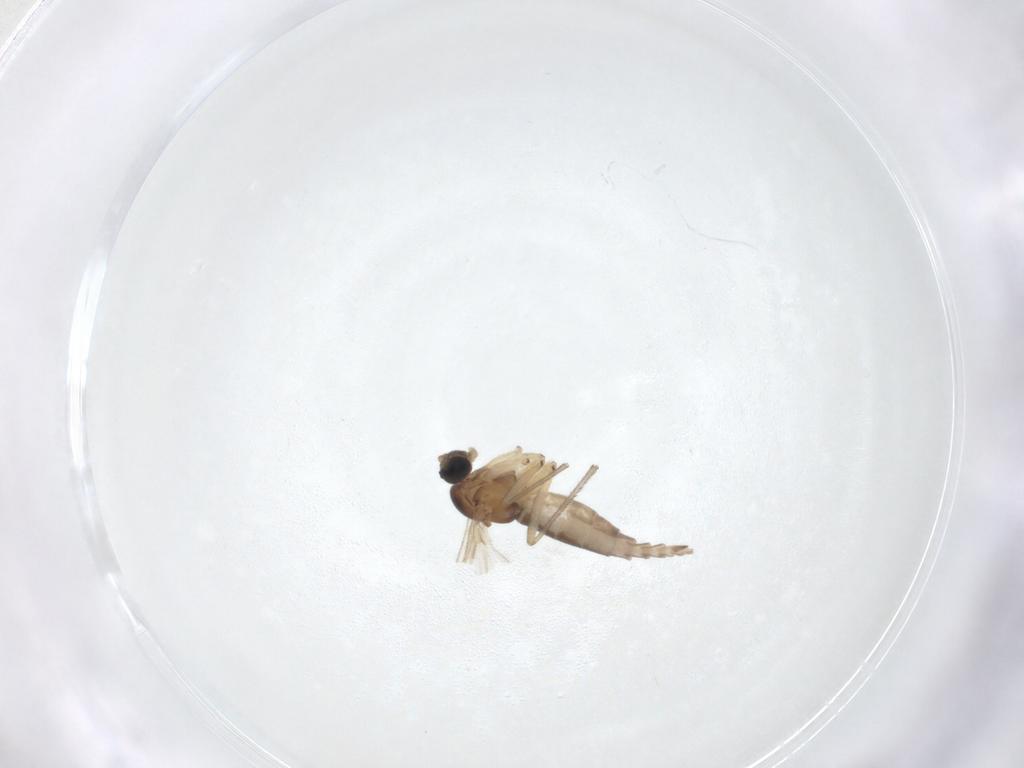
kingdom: Animalia
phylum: Arthropoda
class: Insecta
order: Diptera
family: Sciaridae
